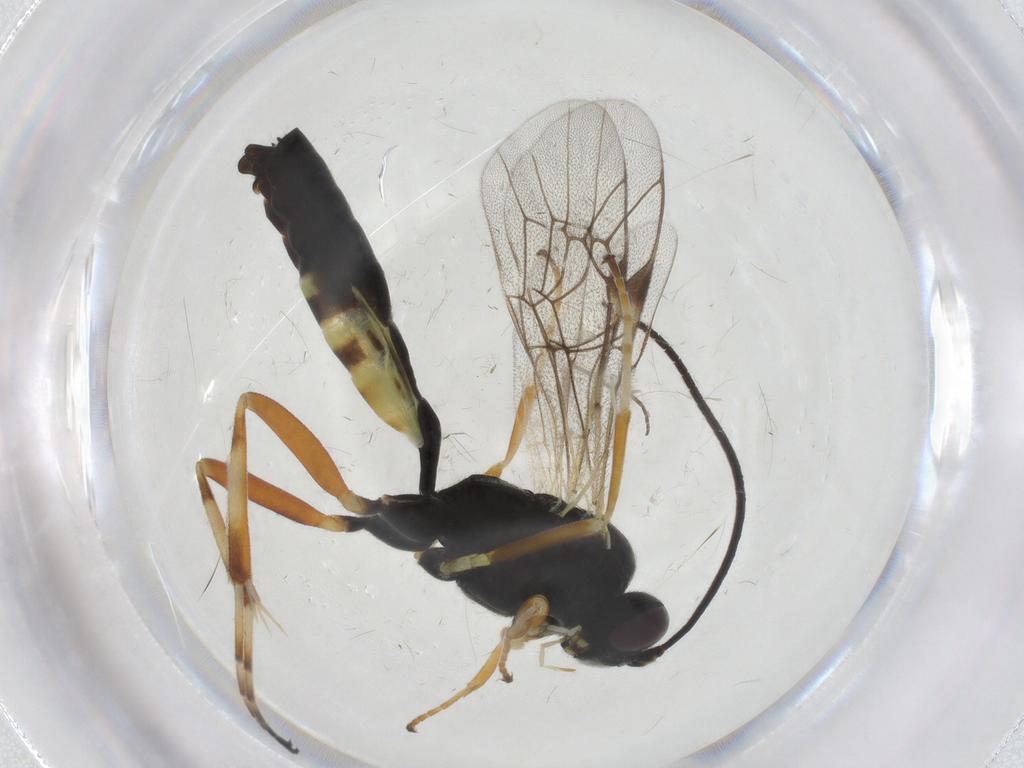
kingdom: Animalia
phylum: Arthropoda
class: Insecta
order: Hymenoptera
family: Ichneumonidae
